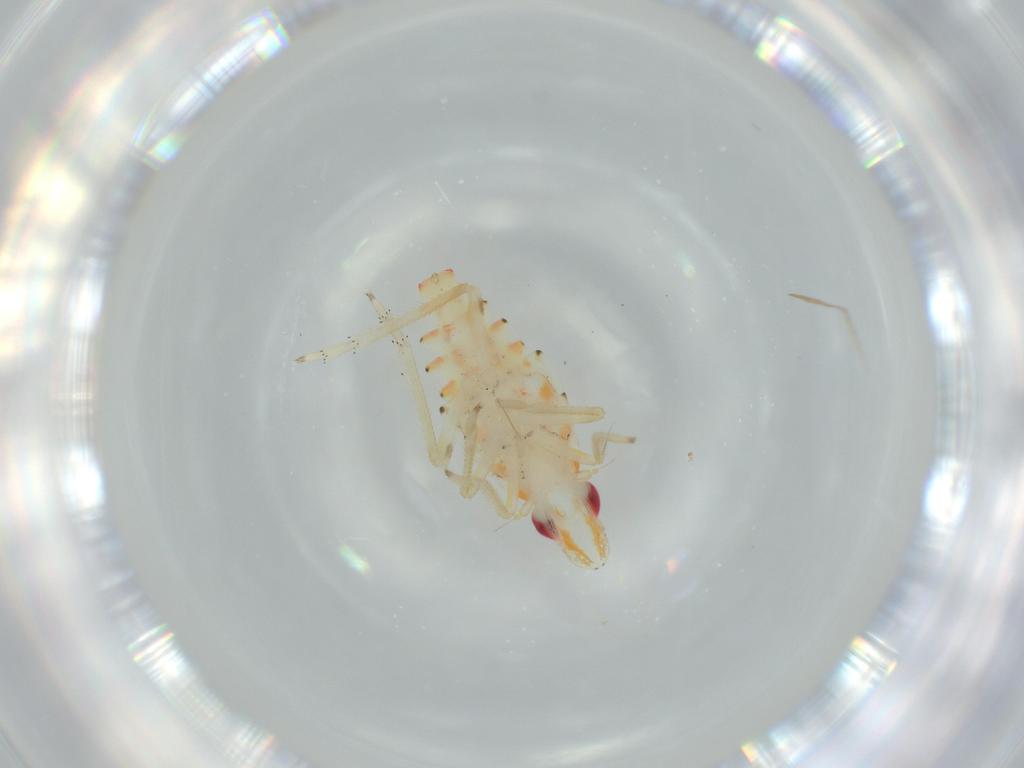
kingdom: Animalia
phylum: Arthropoda
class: Insecta
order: Hemiptera
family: Tropiduchidae
